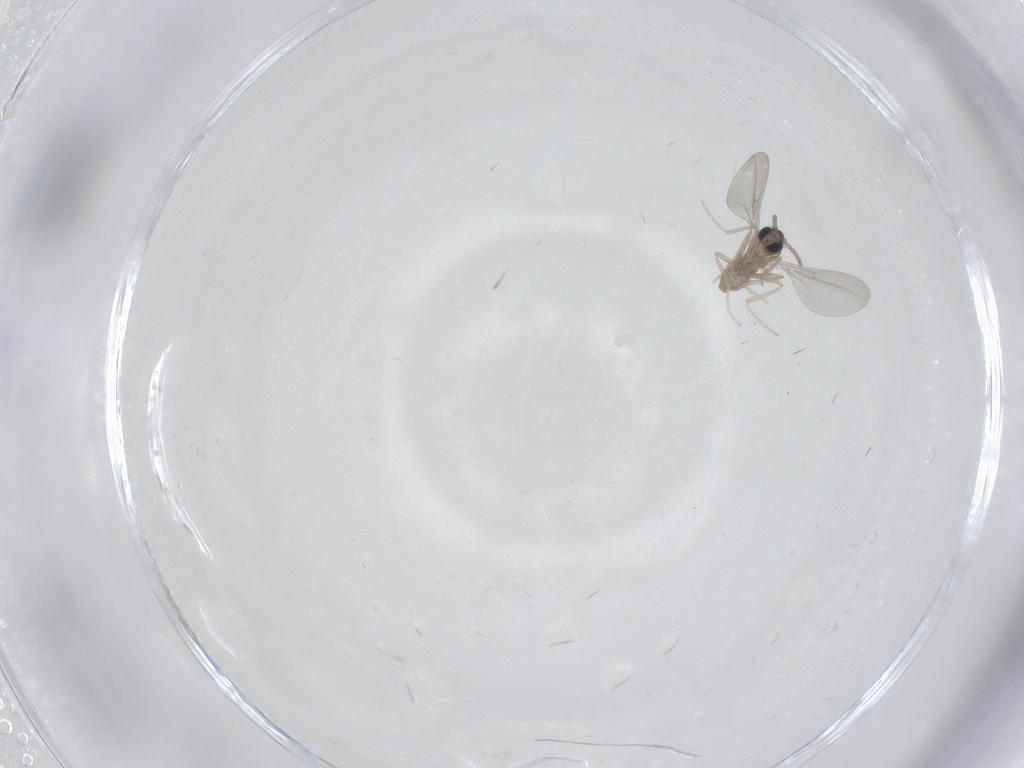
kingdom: Animalia
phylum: Arthropoda
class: Insecta
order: Diptera
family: Cecidomyiidae
